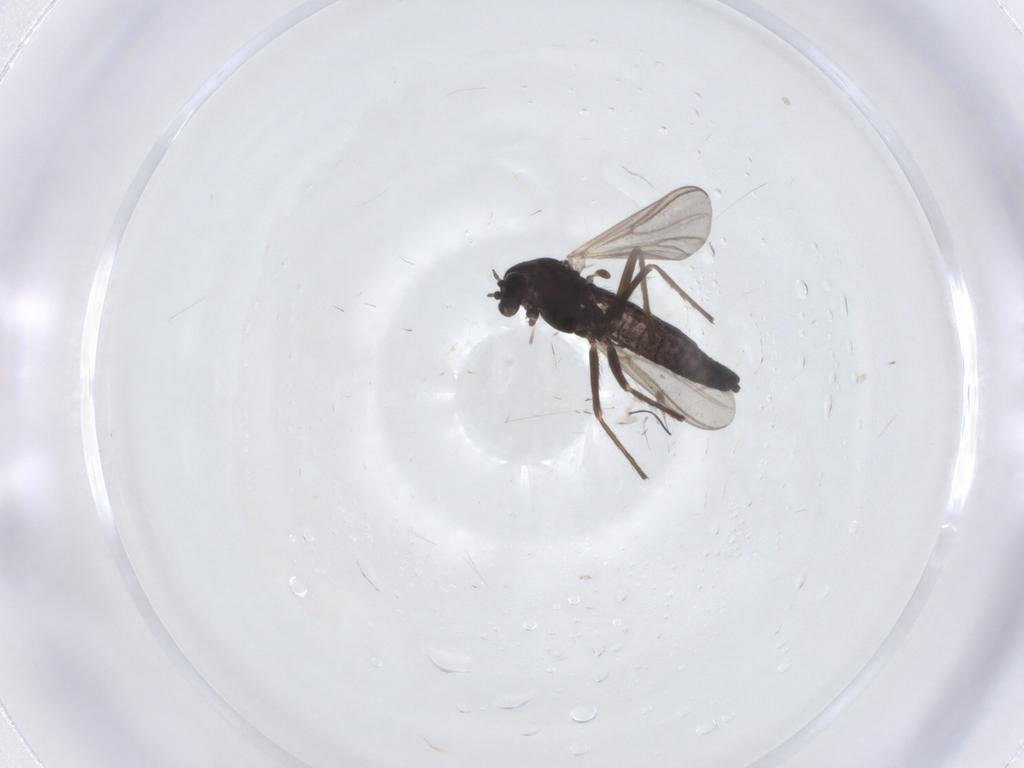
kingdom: Animalia
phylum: Arthropoda
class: Insecta
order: Diptera
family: Chironomidae
